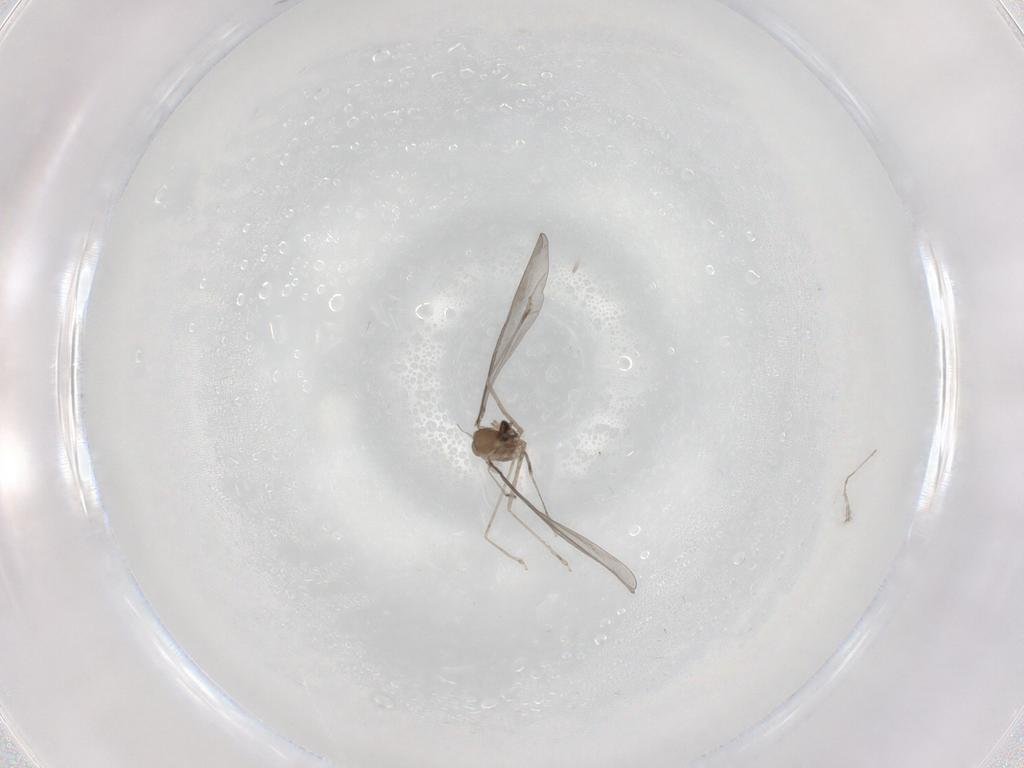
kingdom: Animalia
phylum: Arthropoda
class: Insecta
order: Diptera
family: Cecidomyiidae
